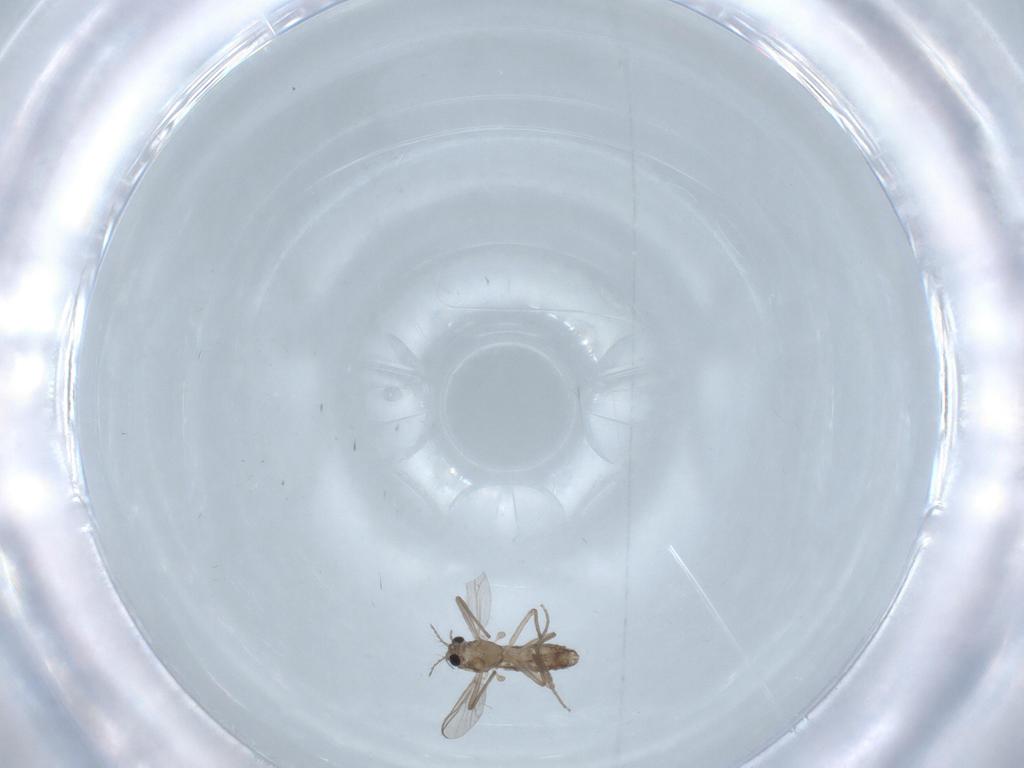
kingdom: Animalia
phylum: Arthropoda
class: Insecta
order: Diptera
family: Chironomidae
